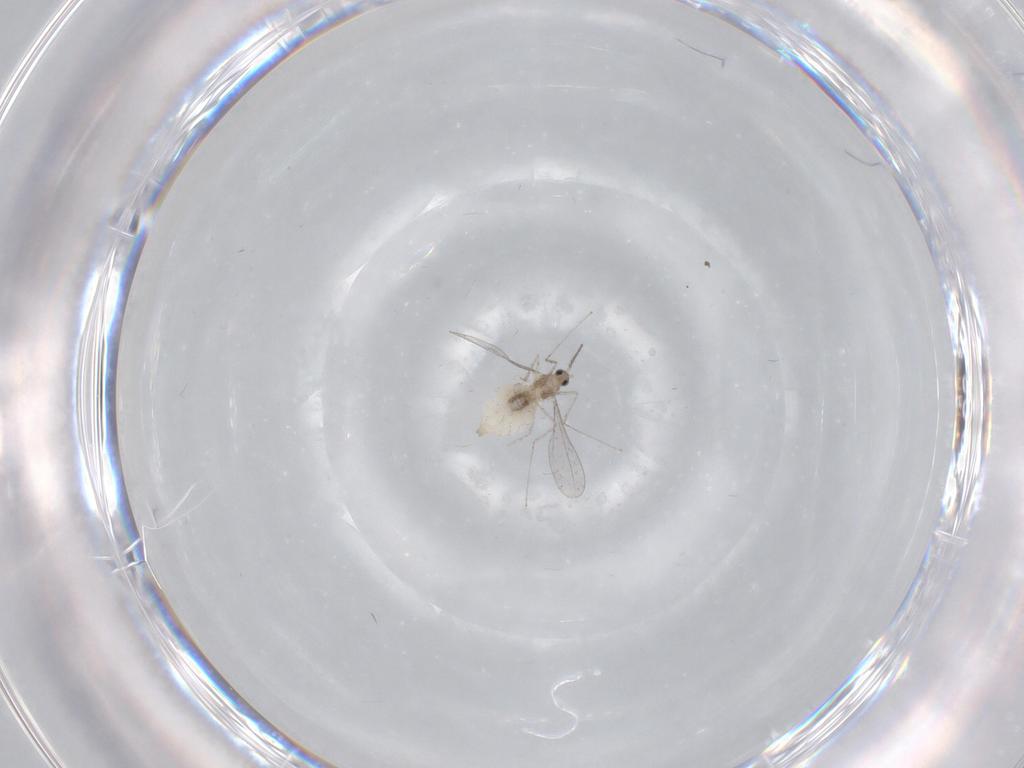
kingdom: Animalia
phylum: Arthropoda
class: Insecta
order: Diptera
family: Cecidomyiidae
